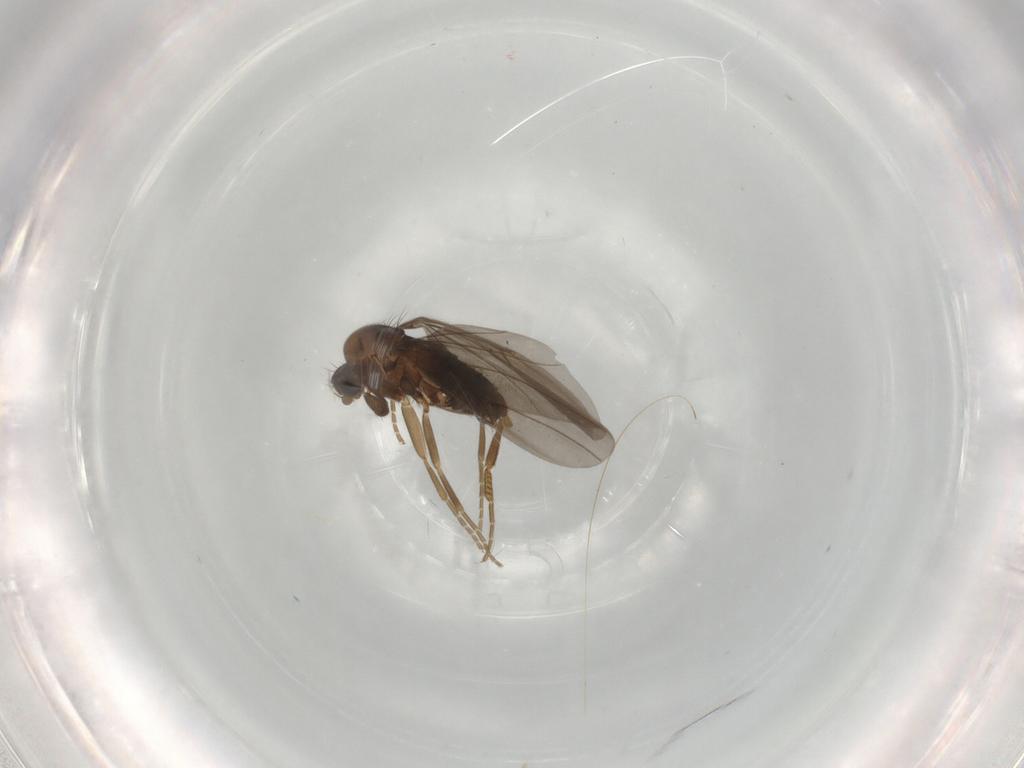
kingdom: Animalia
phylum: Arthropoda
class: Insecta
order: Diptera
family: Phoridae
